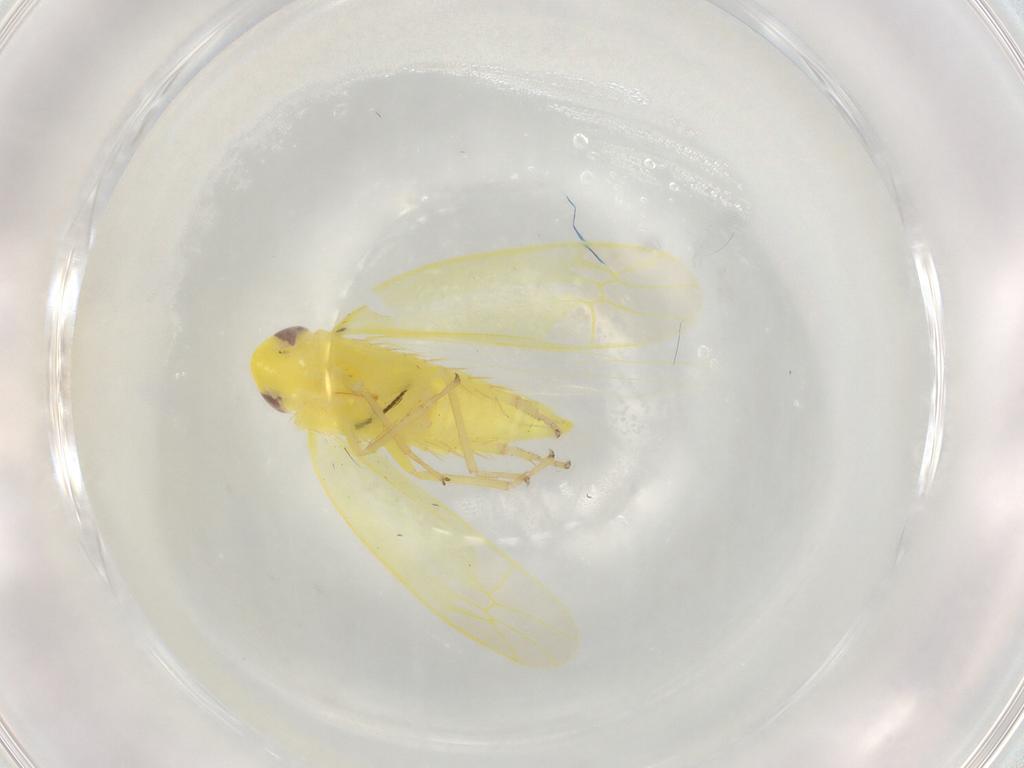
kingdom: Animalia
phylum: Arthropoda
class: Insecta
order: Hemiptera
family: Cicadellidae
